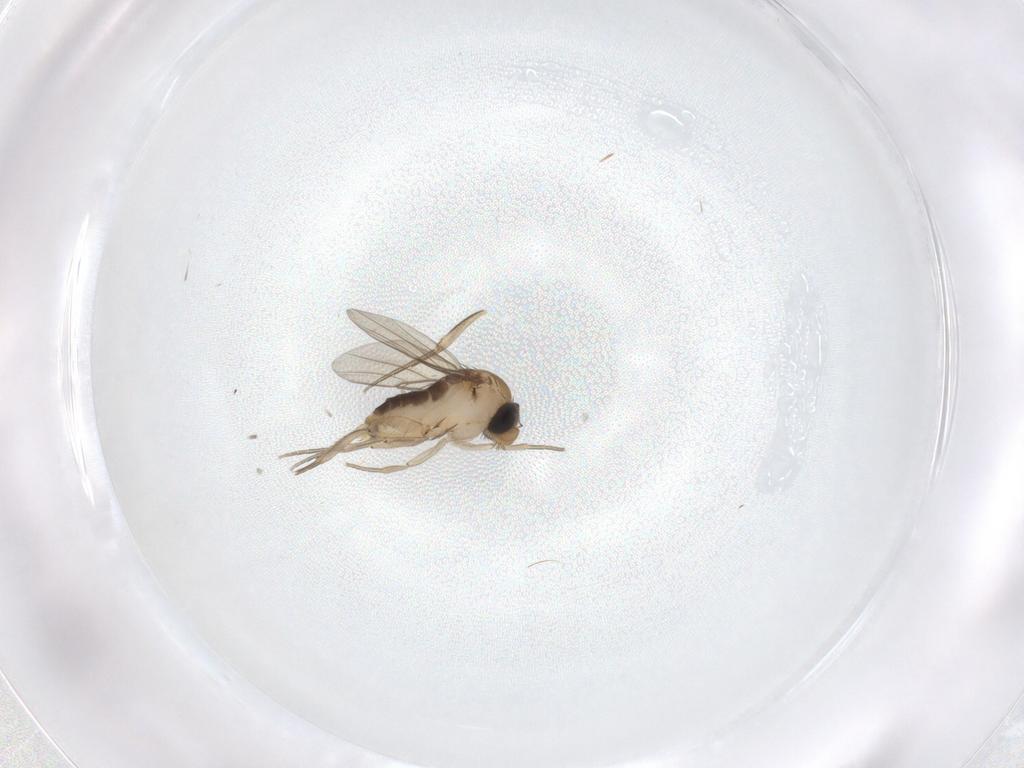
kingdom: Animalia
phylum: Arthropoda
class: Insecta
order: Diptera
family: Phoridae
